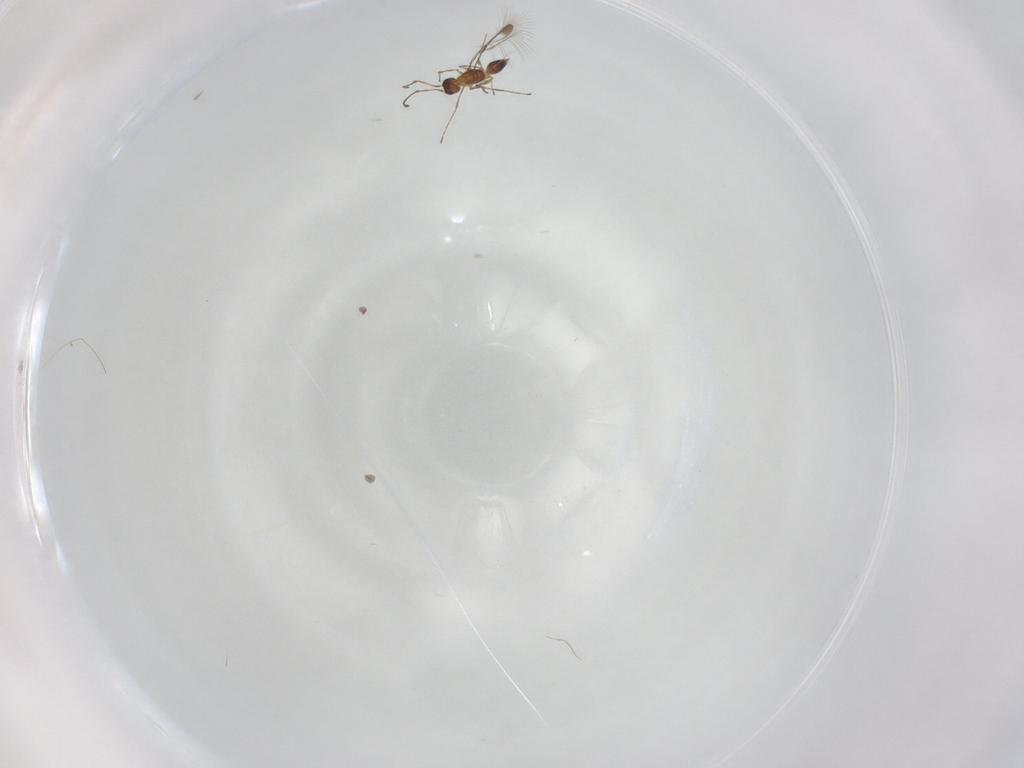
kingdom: Animalia
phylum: Arthropoda
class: Insecta
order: Hymenoptera
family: Mymaridae
